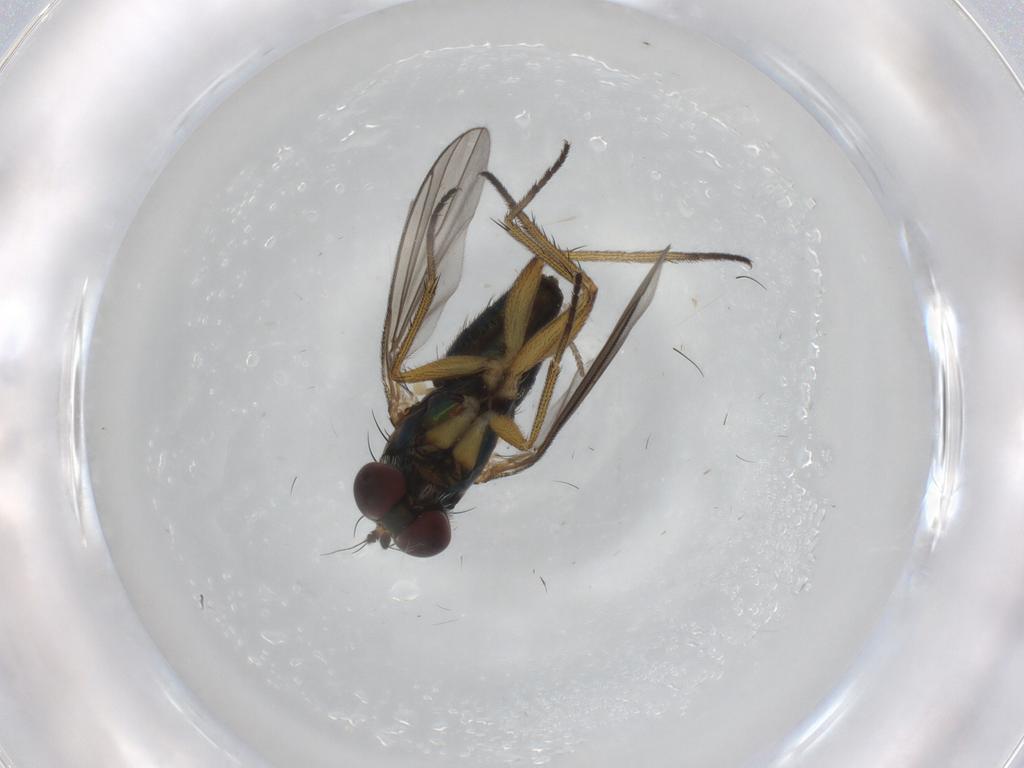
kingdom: Animalia
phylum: Arthropoda
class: Insecta
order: Diptera
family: Dolichopodidae
